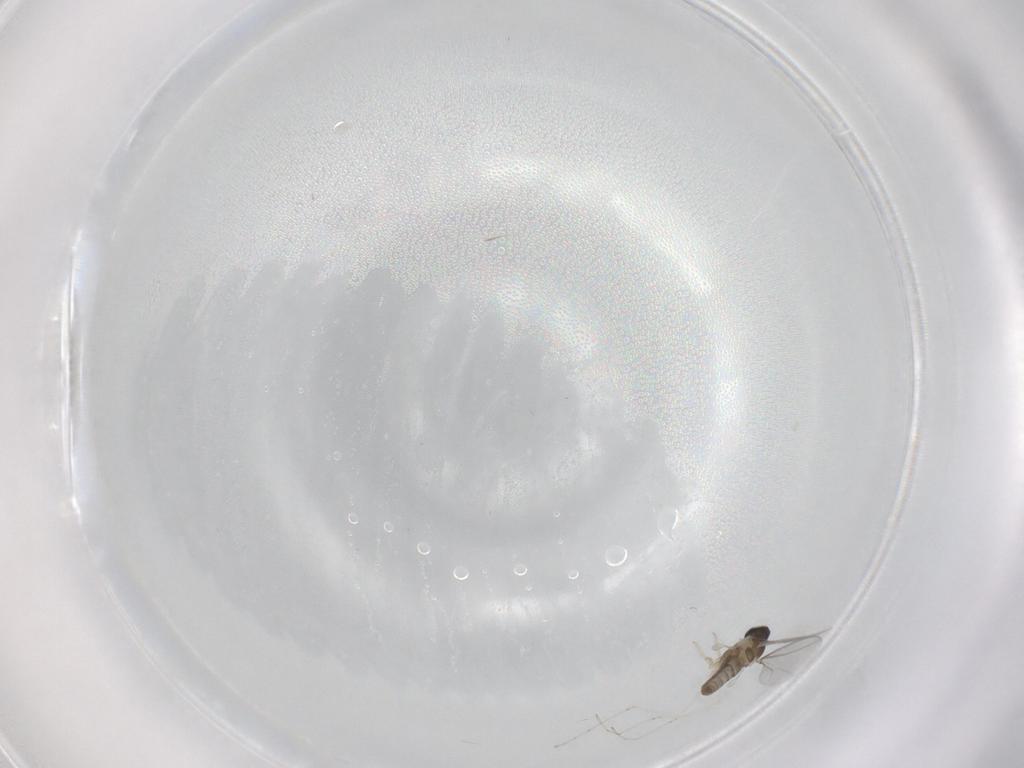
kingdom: Animalia
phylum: Arthropoda
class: Insecta
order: Diptera
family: Cecidomyiidae
